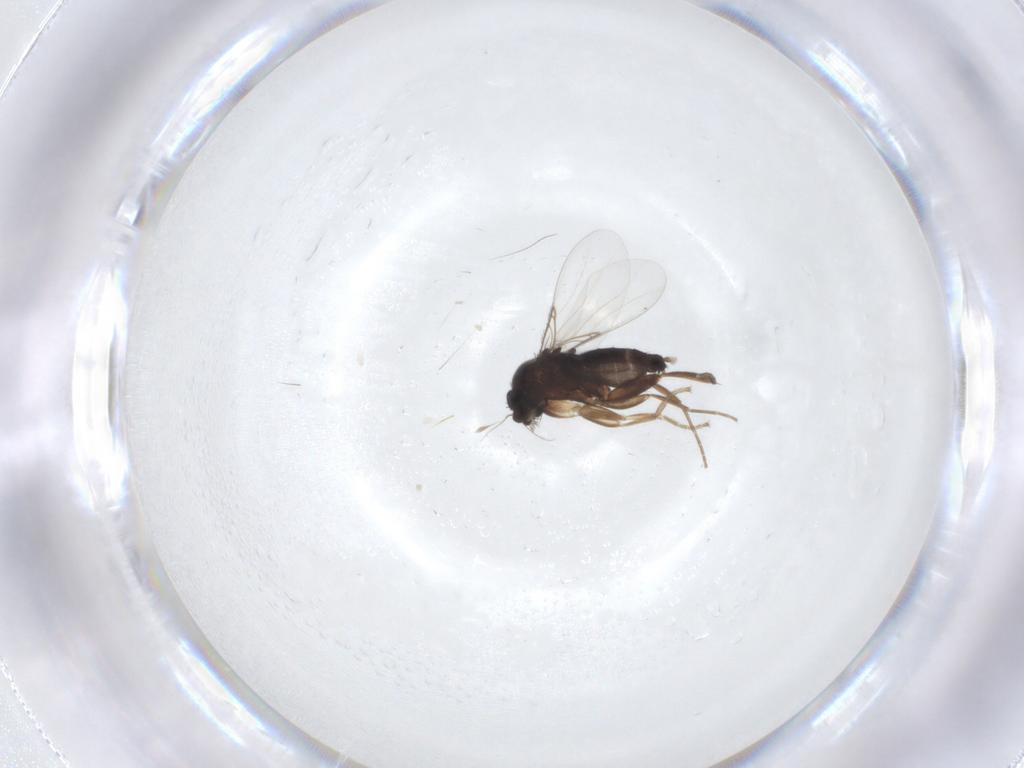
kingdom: Animalia
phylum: Arthropoda
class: Insecta
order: Diptera
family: Phoridae
